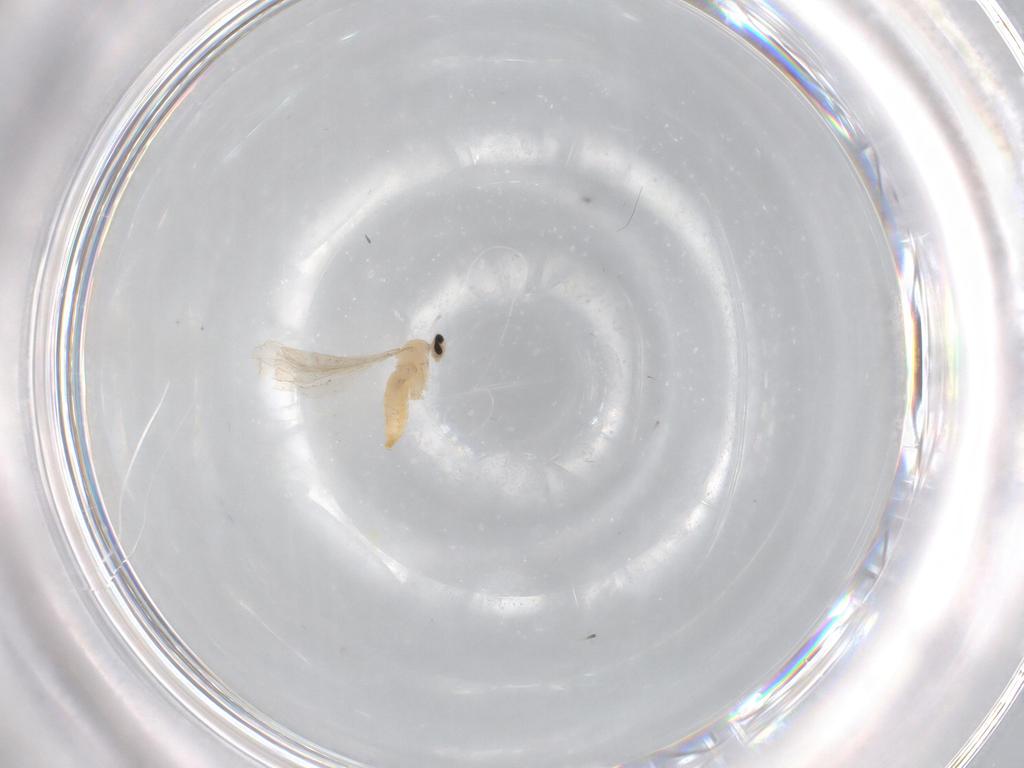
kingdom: Animalia
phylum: Arthropoda
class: Insecta
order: Diptera
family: Cecidomyiidae
